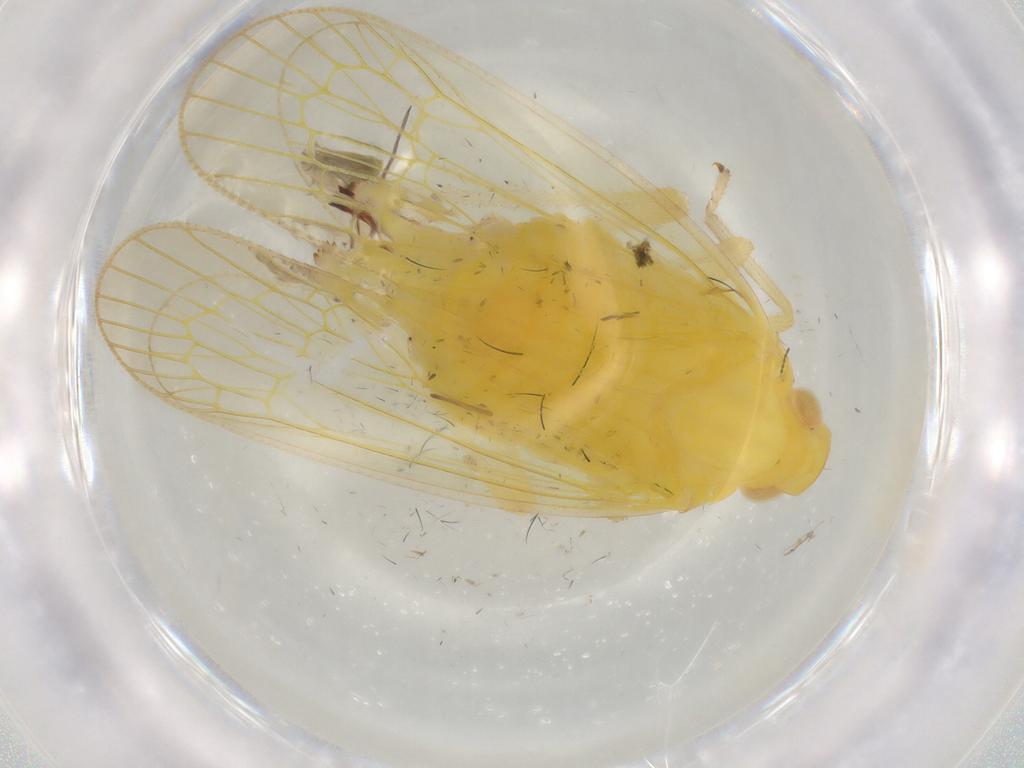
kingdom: Animalia
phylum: Arthropoda
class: Insecta
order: Hemiptera
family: Tropiduchidae
